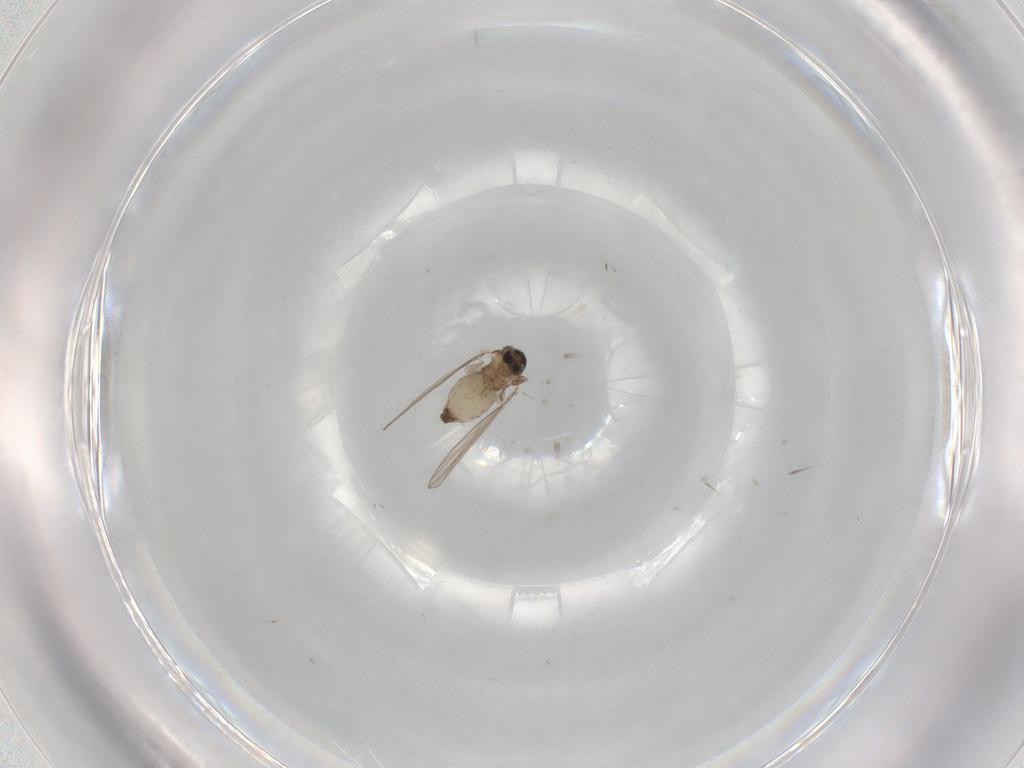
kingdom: Animalia
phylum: Arthropoda
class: Insecta
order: Diptera
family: Psychodidae
